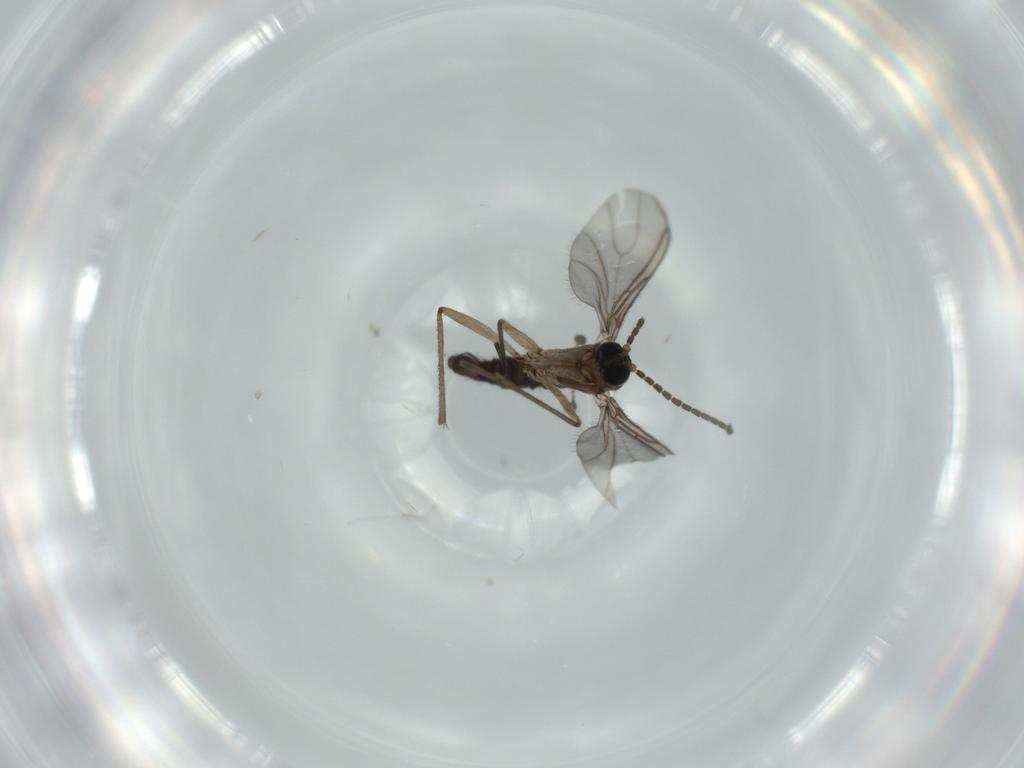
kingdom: Animalia
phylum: Arthropoda
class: Insecta
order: Diptera
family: Sciaridae
